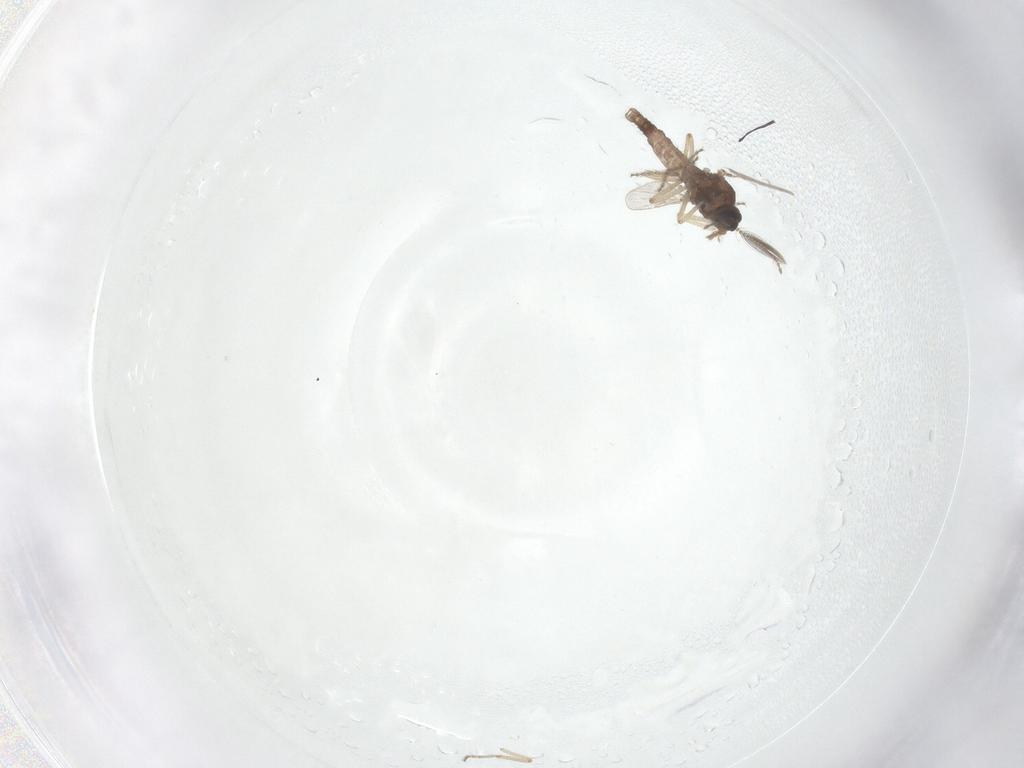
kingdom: Animalia
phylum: Arthropoda
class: Insecta
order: Diptera
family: Ceratopogonidae
